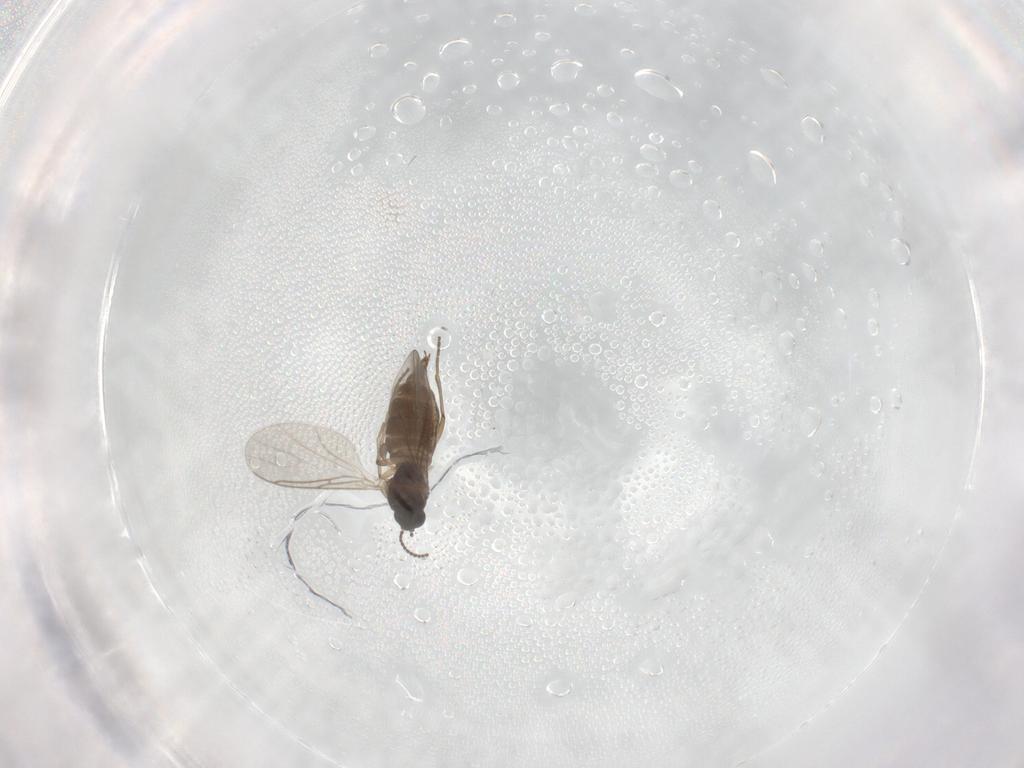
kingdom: Animalia
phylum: Arthropoda
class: Insecta
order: Diptera
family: Sciaridae
